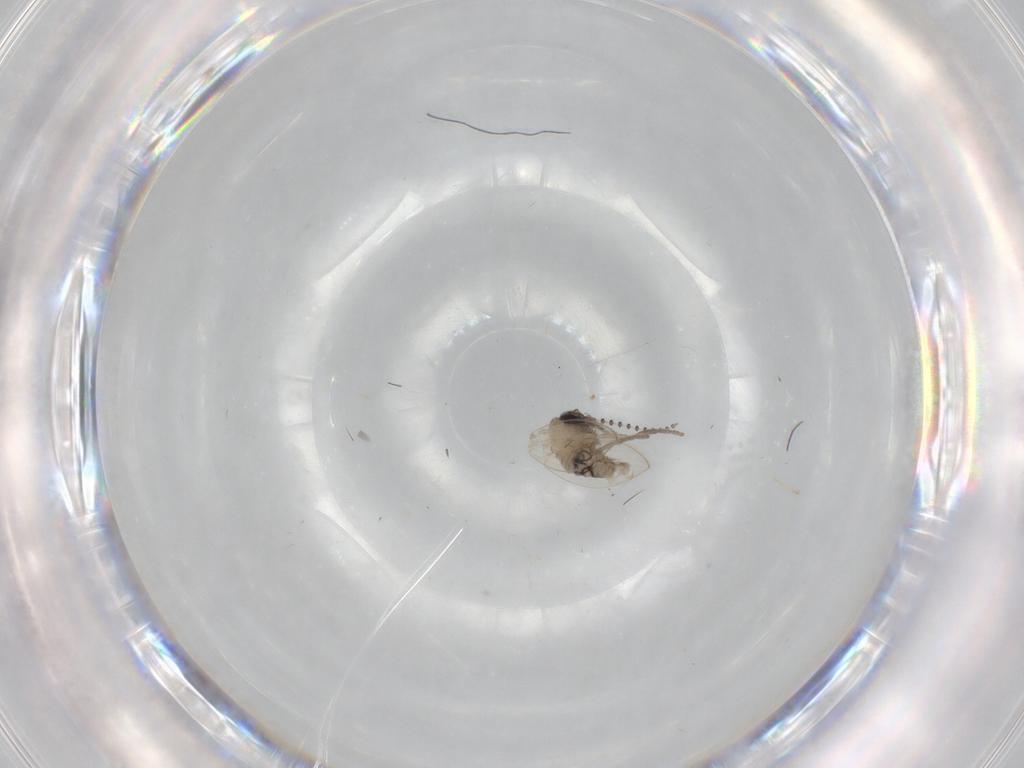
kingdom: Animalia
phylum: Arthropoda
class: Insecta
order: Diptera
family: Psychodidae
